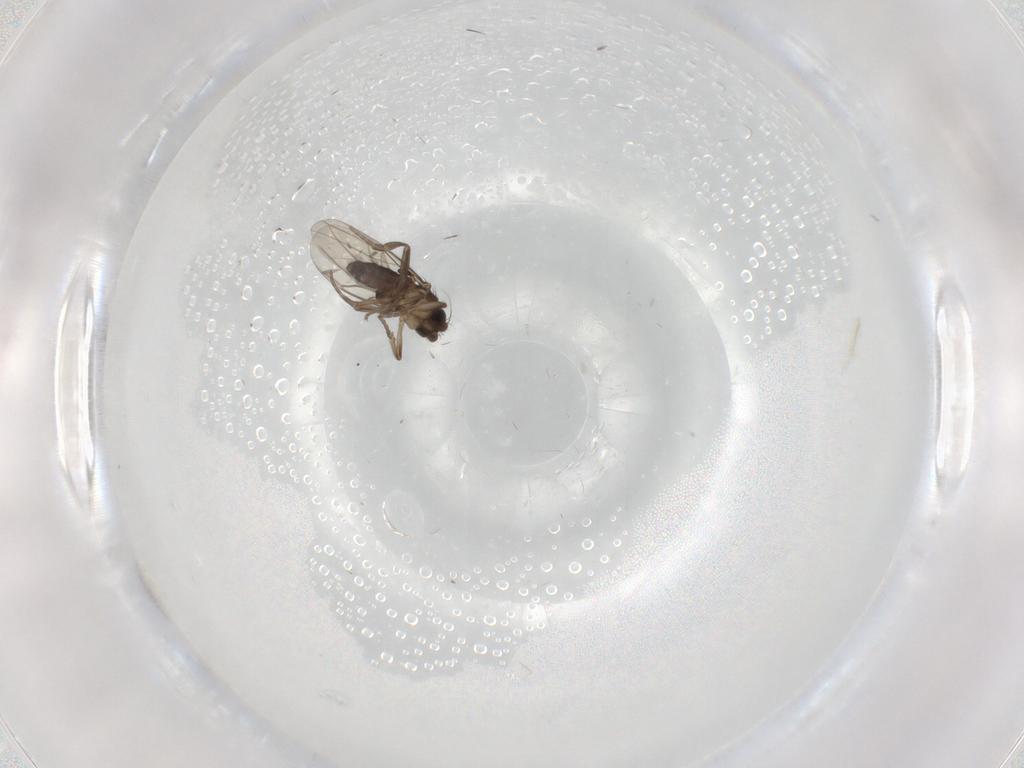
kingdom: Animalia
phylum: Arthropoda
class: Insecta
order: Diptera
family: Phoridae
